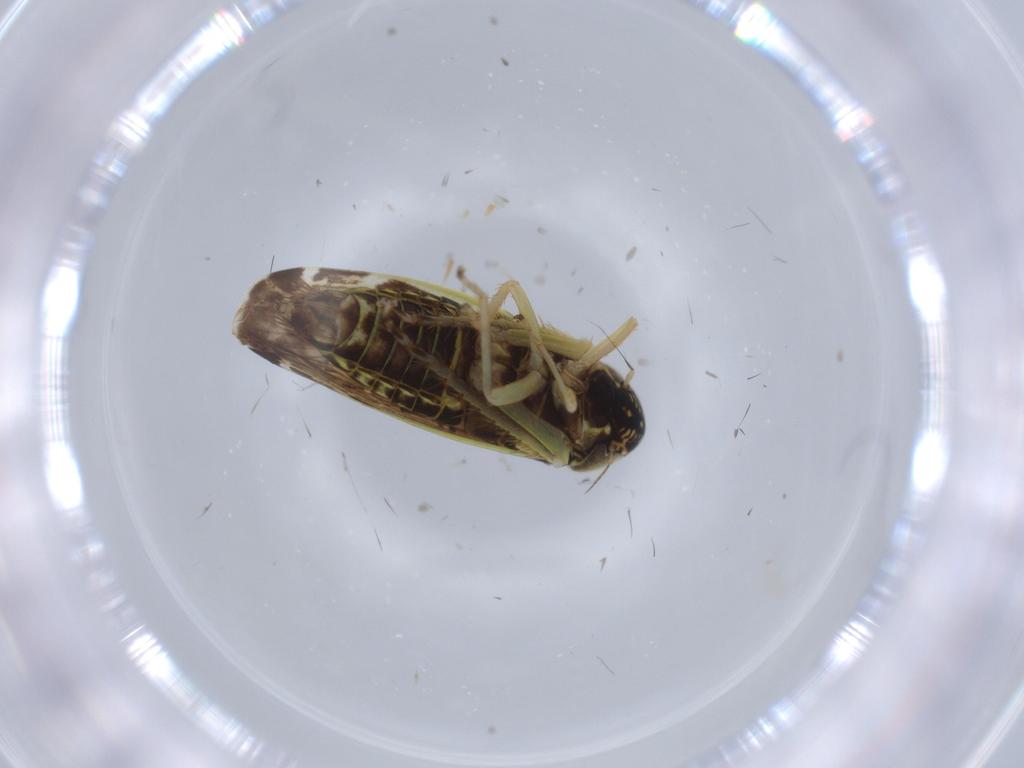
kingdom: Animalia
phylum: Arthropoda
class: Insecta
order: Hemiptera
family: Cicadellidae
